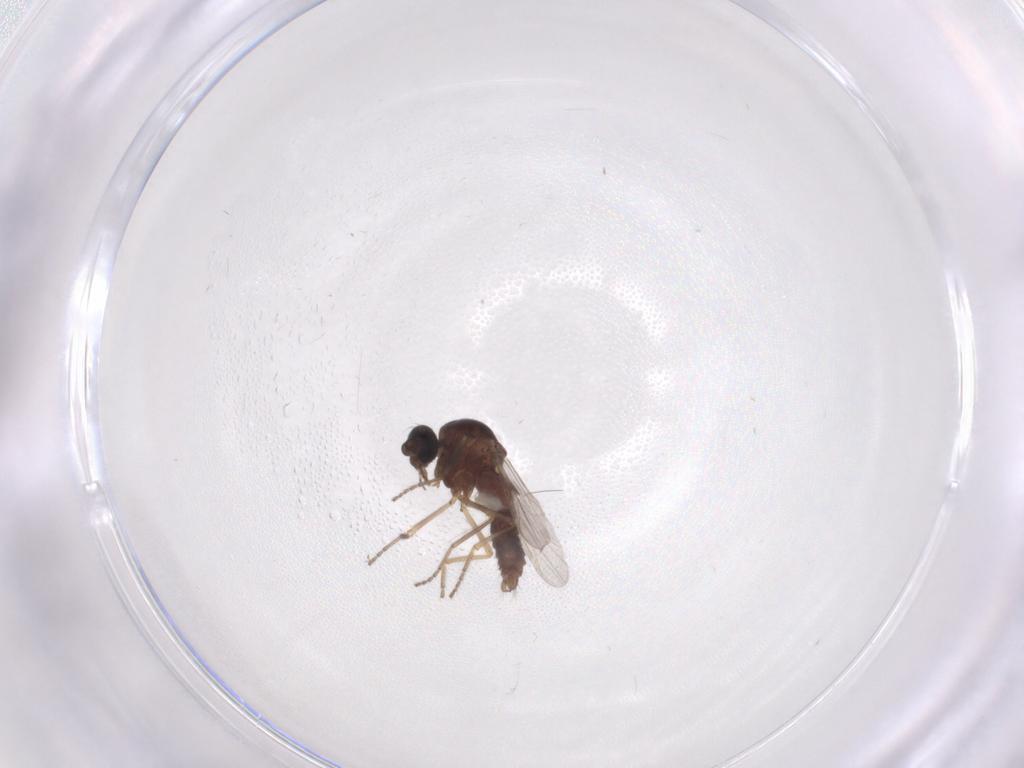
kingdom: Animalia
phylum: Arthropoda
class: Insecta
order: Diptera
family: Ceratopogonidae
